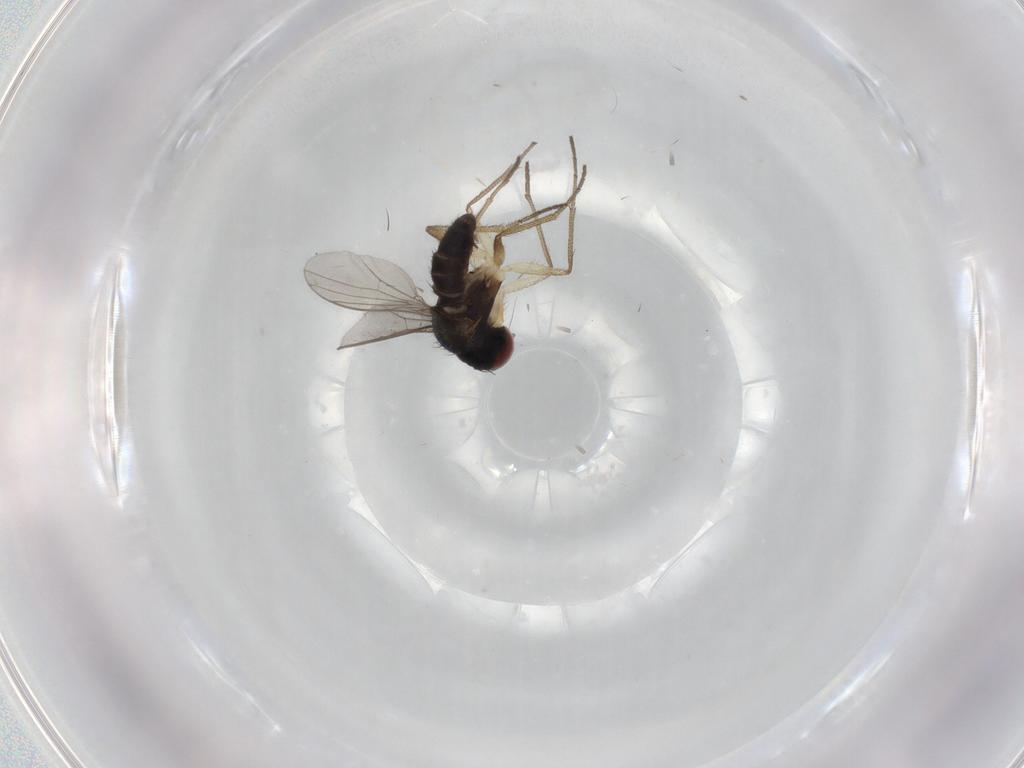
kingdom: Animalia
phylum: Arthropoda
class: Insecta
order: Diptera
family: Dolichopodidae
